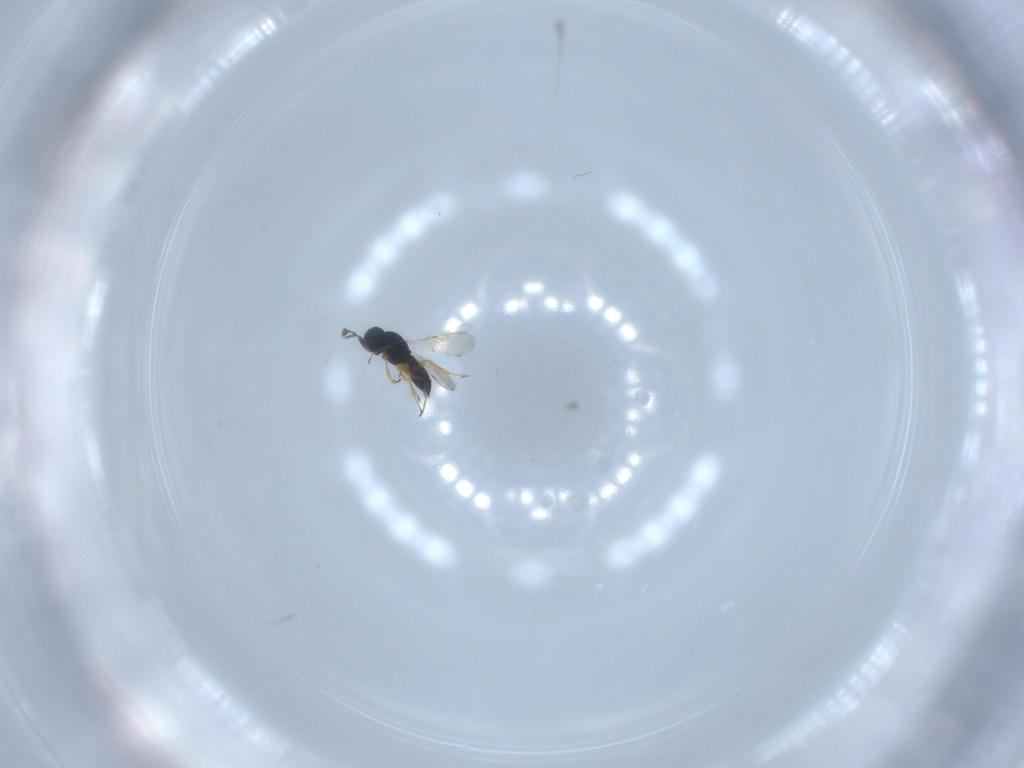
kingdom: Animalia
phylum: Arthropoda
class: Insecta
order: Hymenoptera
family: Scelionidae
